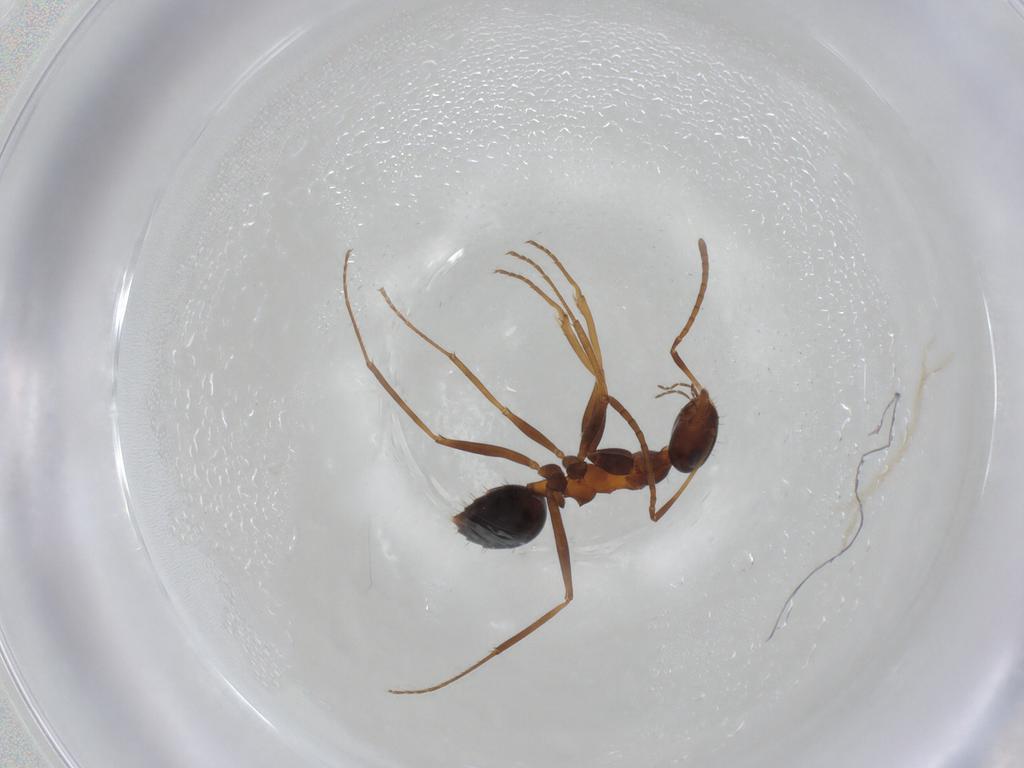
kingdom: Animalia
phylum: Arthropoda
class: Insecta
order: Hymenoptera
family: Formicidae
